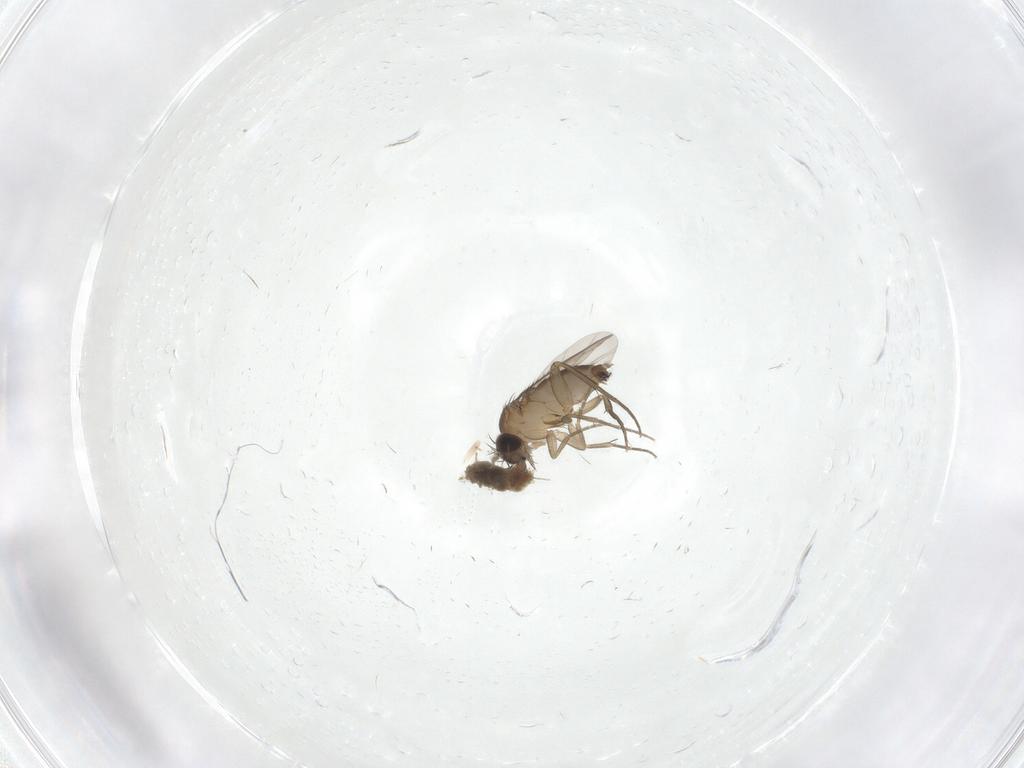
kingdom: Animalia
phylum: Arthropoda
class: Insecta
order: Diptera
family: Phoridae
